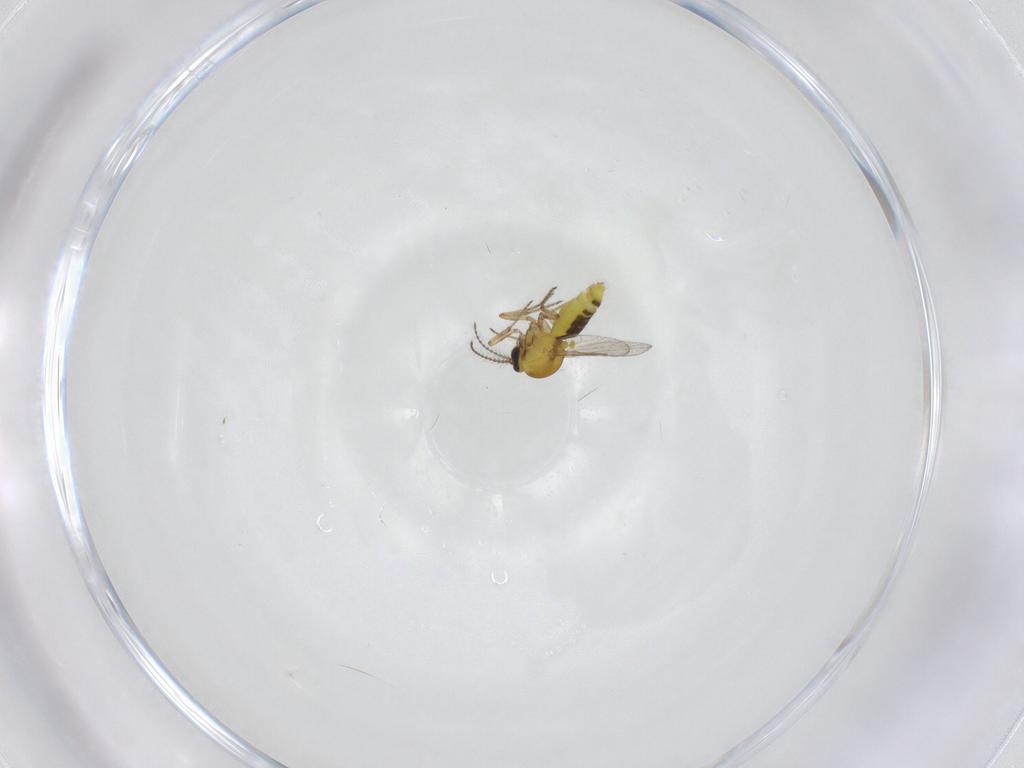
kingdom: Animalia
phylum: Arthropoda
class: Insecta
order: Diptera
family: Ceratopogonidae
